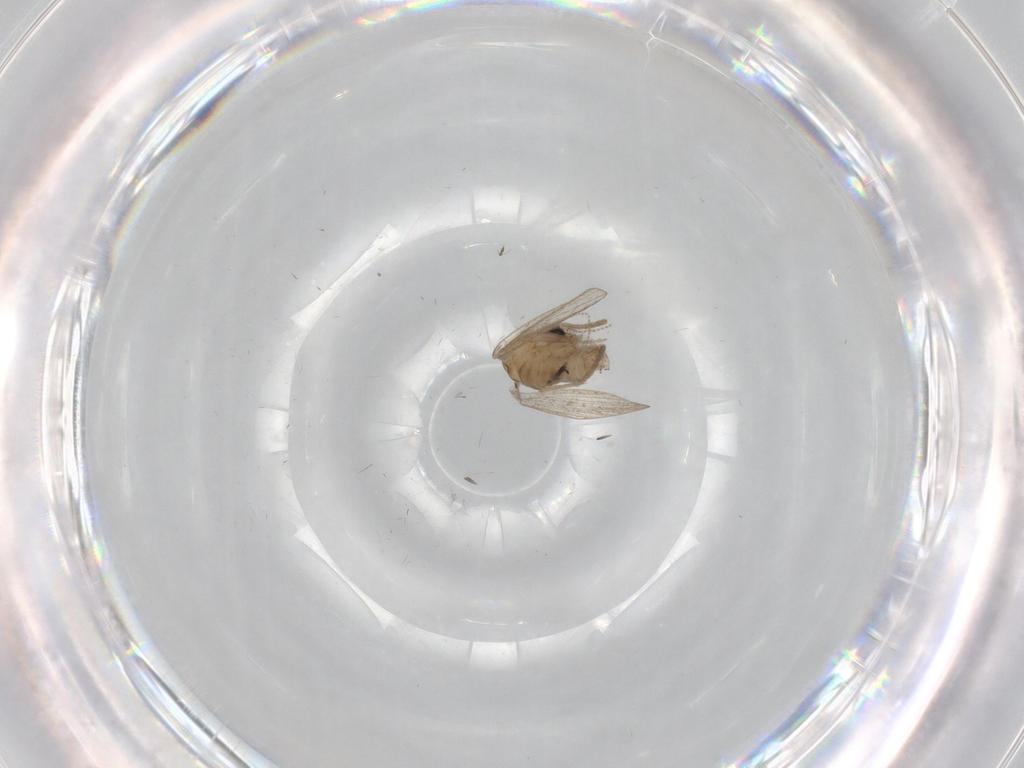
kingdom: Animalia
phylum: Arthropoda
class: Insecta
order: Diptera
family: Psychodidae
